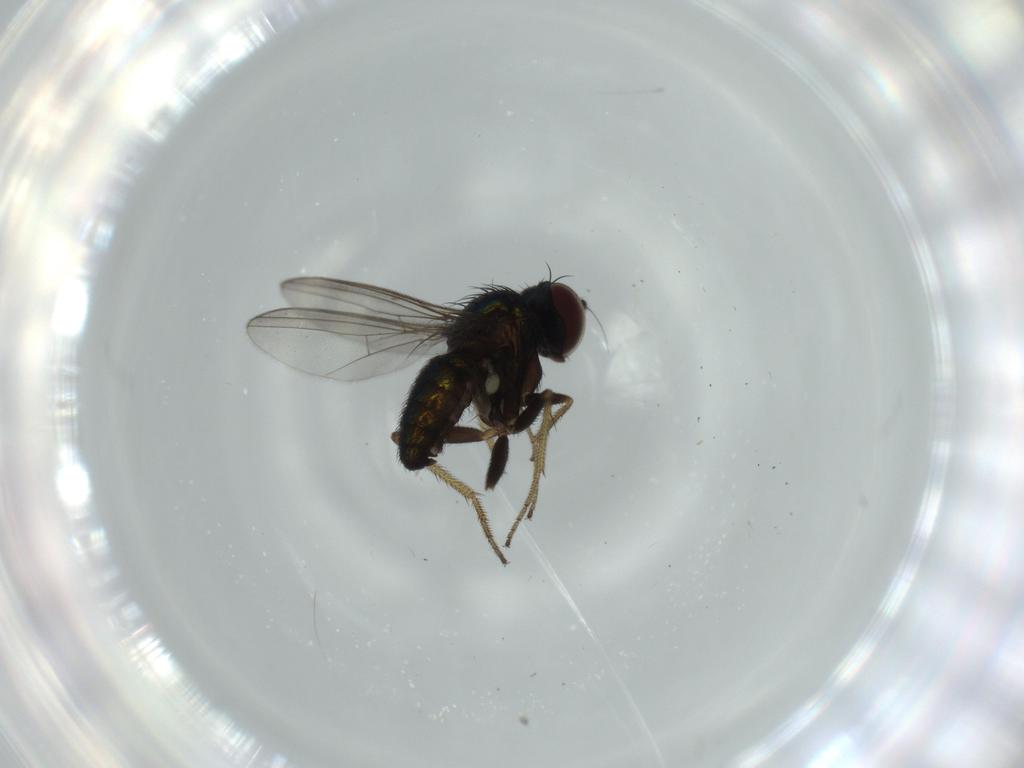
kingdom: Animalia
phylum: Arthropoda
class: Insecta
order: Diptera
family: Dolichopodidae
